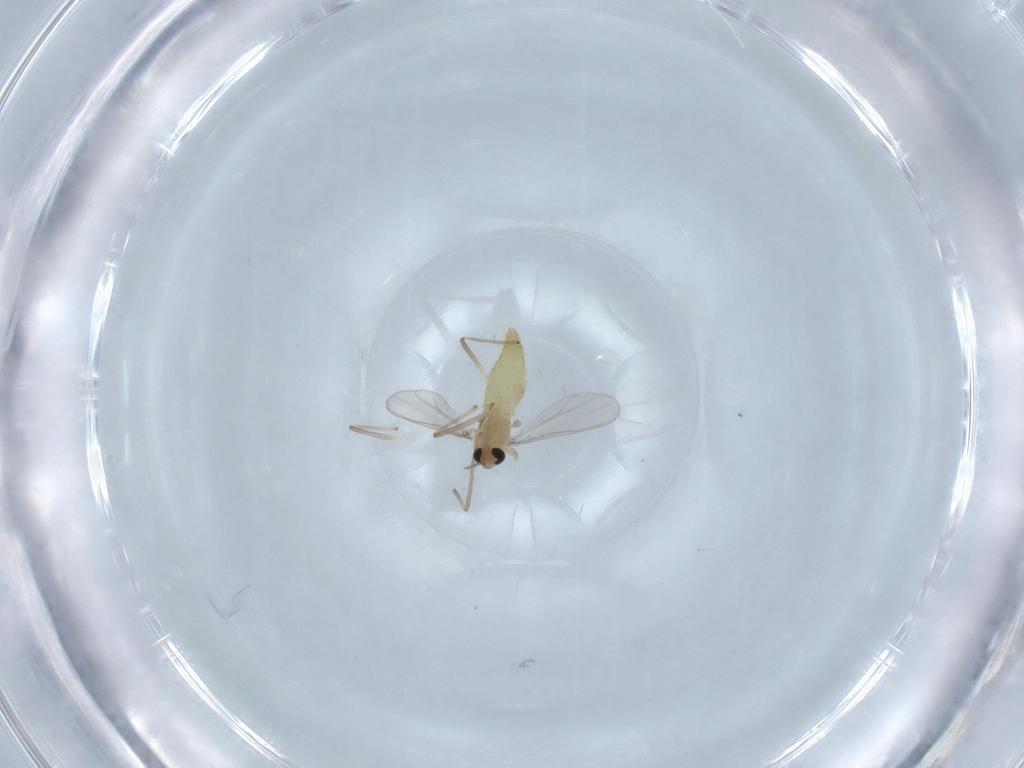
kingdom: Animalia
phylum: Arthropoda
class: Insecta
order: Diptera
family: Chironomidae
